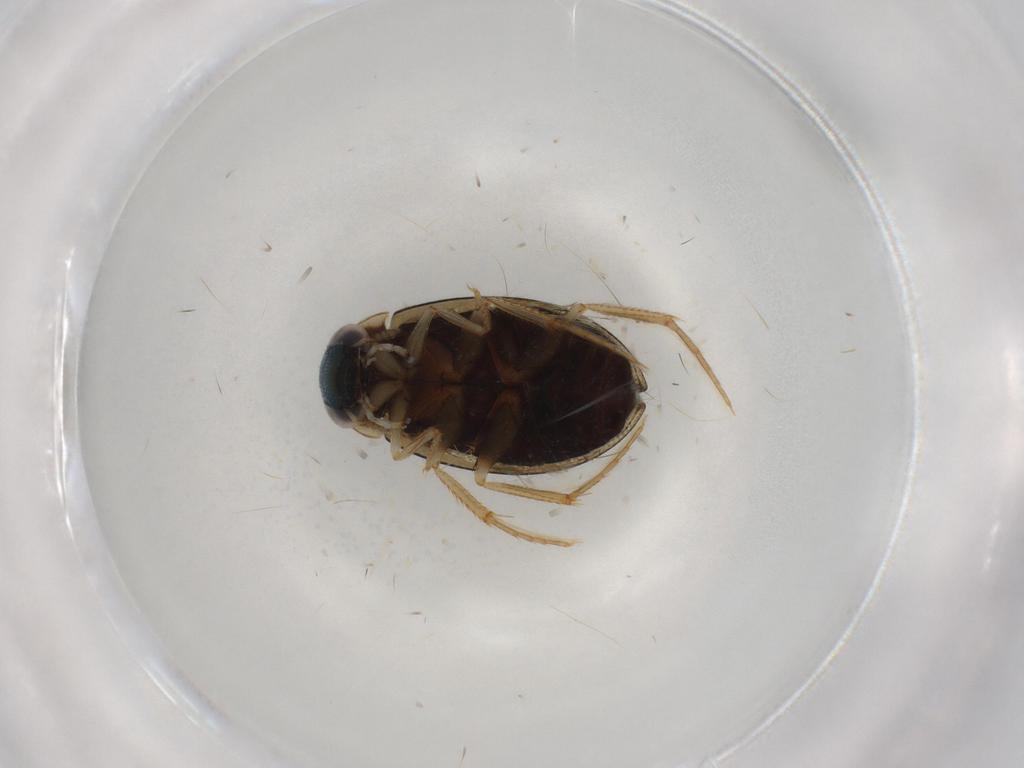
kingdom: Animalia
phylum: Arthropoda
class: Insecta
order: Coleoptera
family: Hydrophilidae
